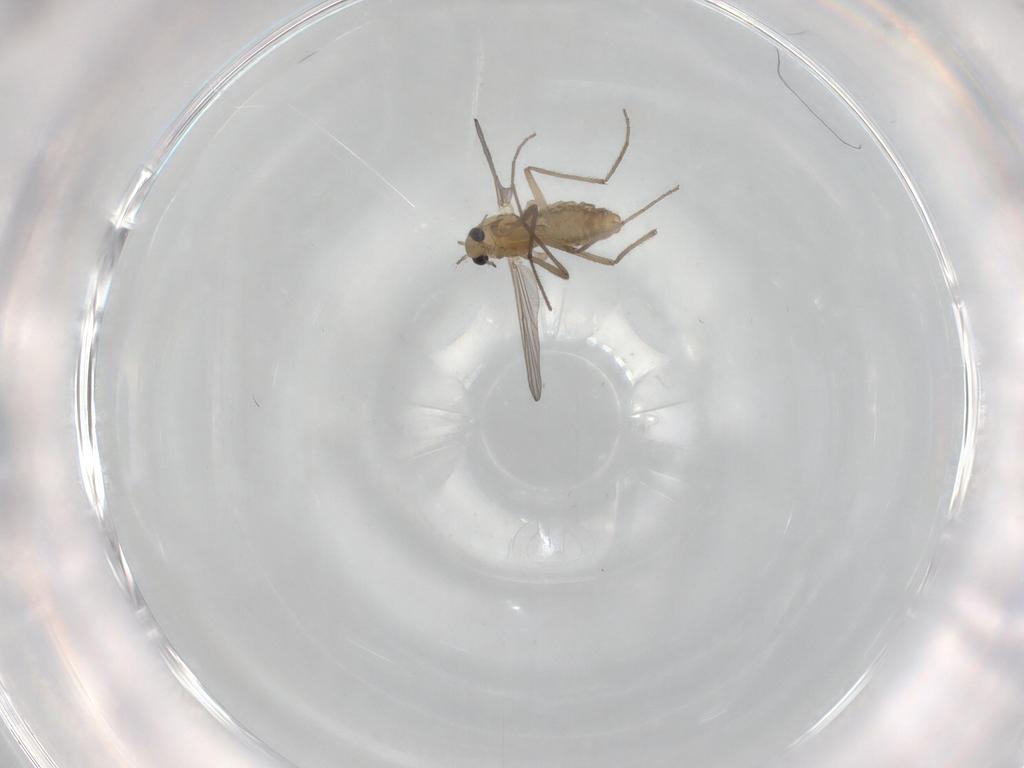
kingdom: Animalia
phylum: Arthropoda
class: Insecta
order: Diptera
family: Chironomidae
